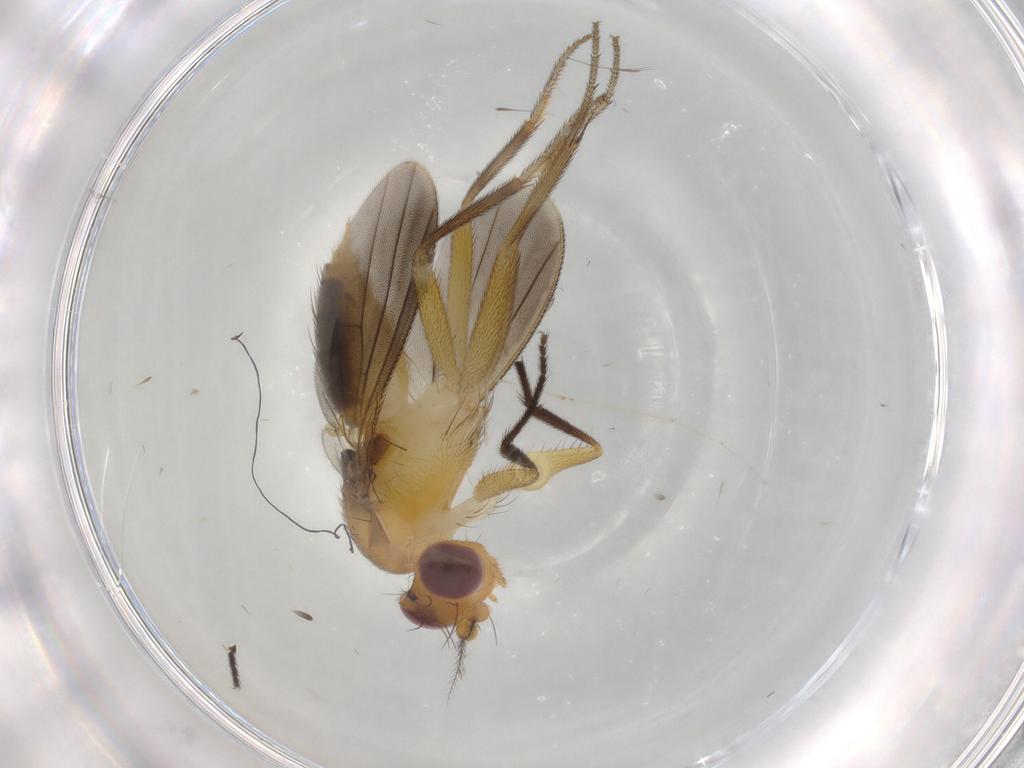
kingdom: Animalia
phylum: Arthropoda
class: Insecta
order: Diptera
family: Clusiidae
